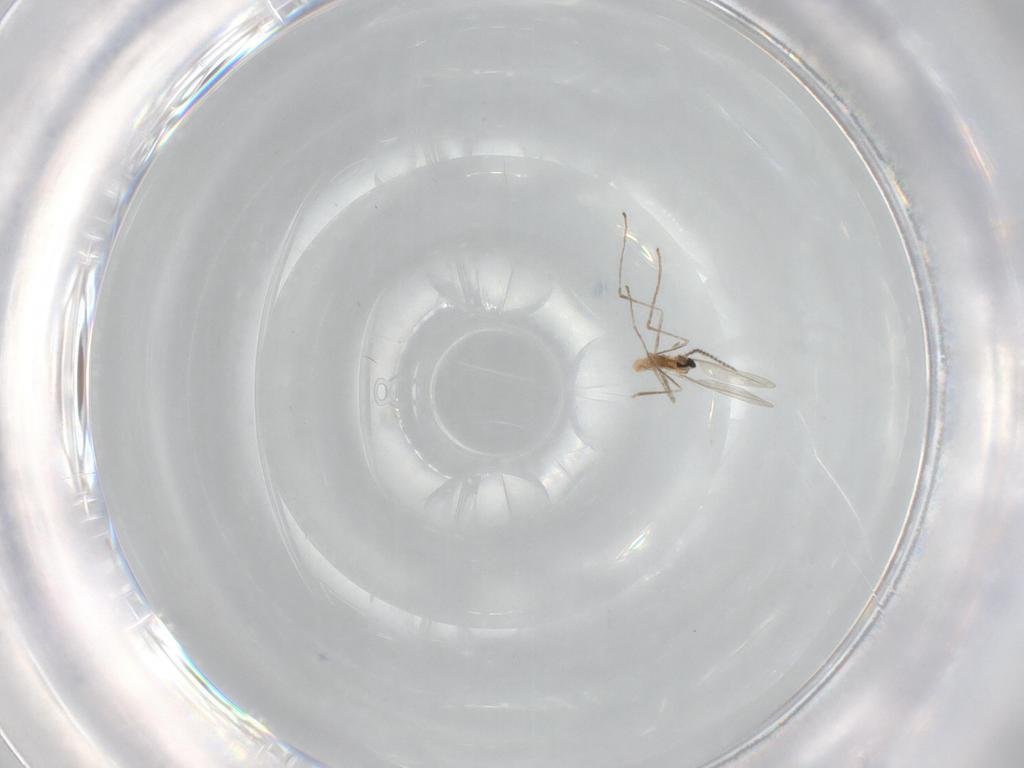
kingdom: Animalia
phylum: Arthropoda
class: Insecta
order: Diptera
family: Cecidomyiidae
